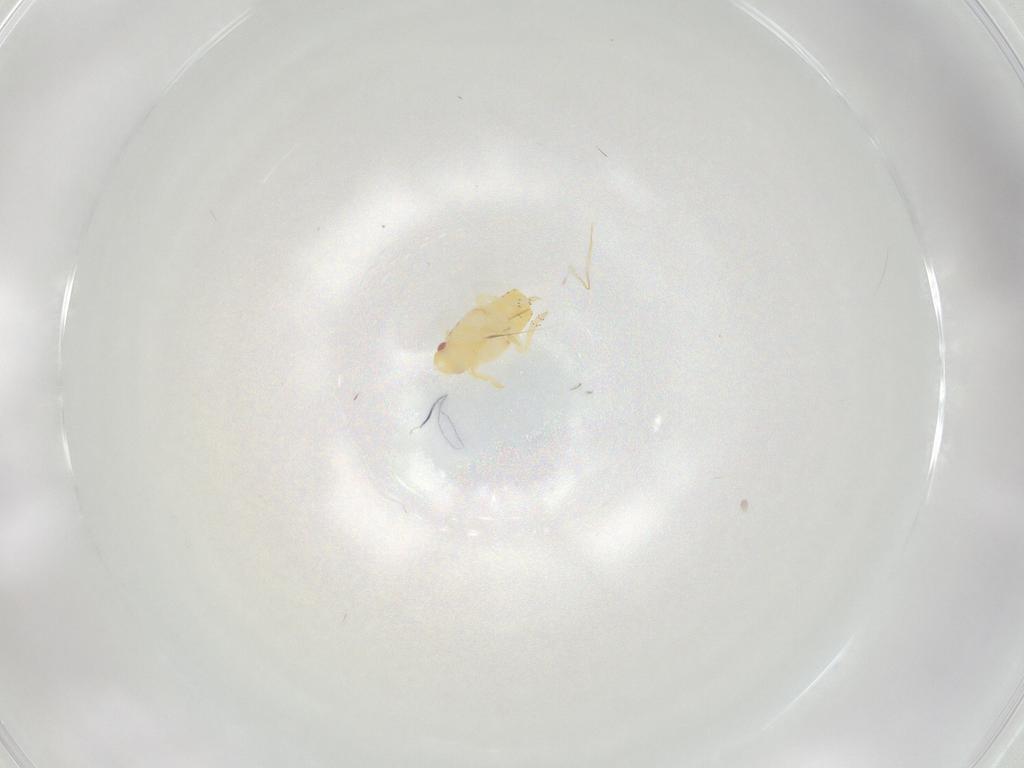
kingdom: Animalia
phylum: Arthropoda
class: Insecta
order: Hemiptera
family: Flatidae
